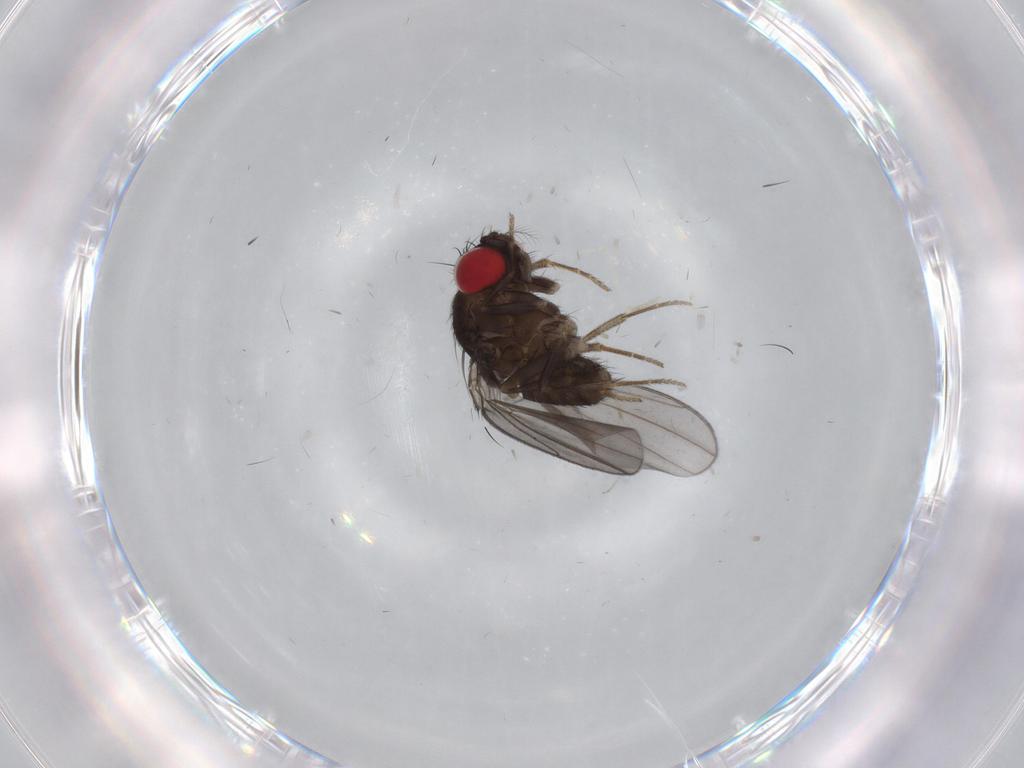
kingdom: Animalia
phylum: Arthropoda
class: Insecta
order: Diptera
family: Drosophilidae
